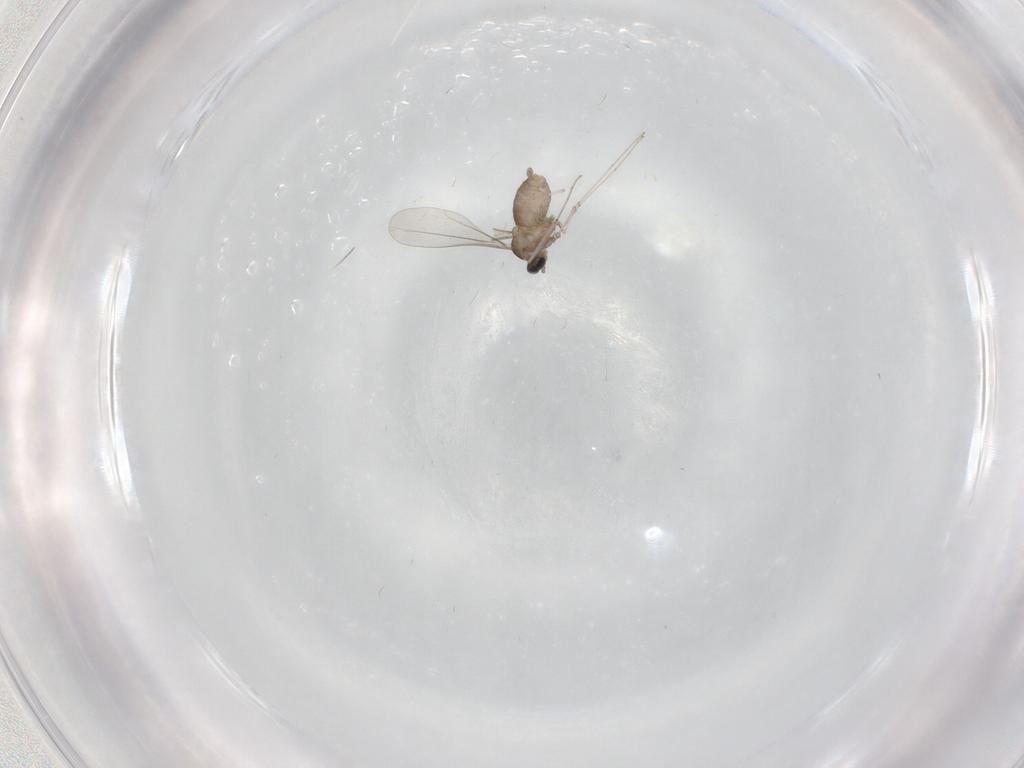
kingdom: Animalia
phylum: Arthropoda
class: Insecta
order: Diptera
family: Cecidomyiidae
